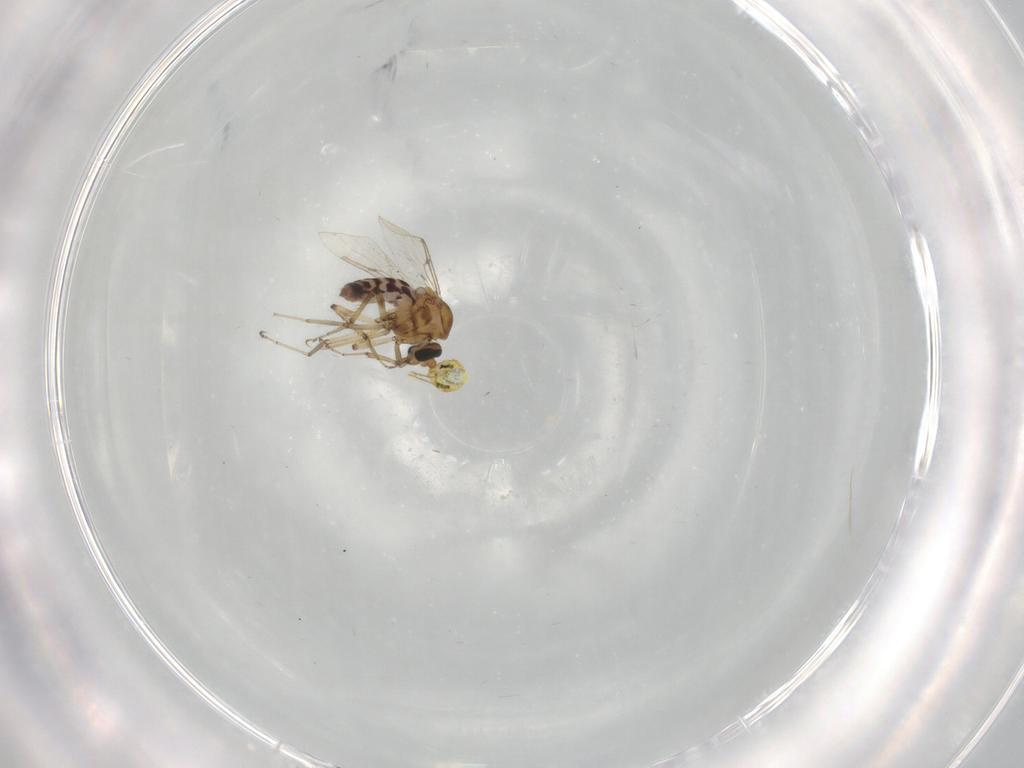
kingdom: Animalia
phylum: Arthropoda
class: Insecta
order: Diptera
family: Ceratopogonidae
